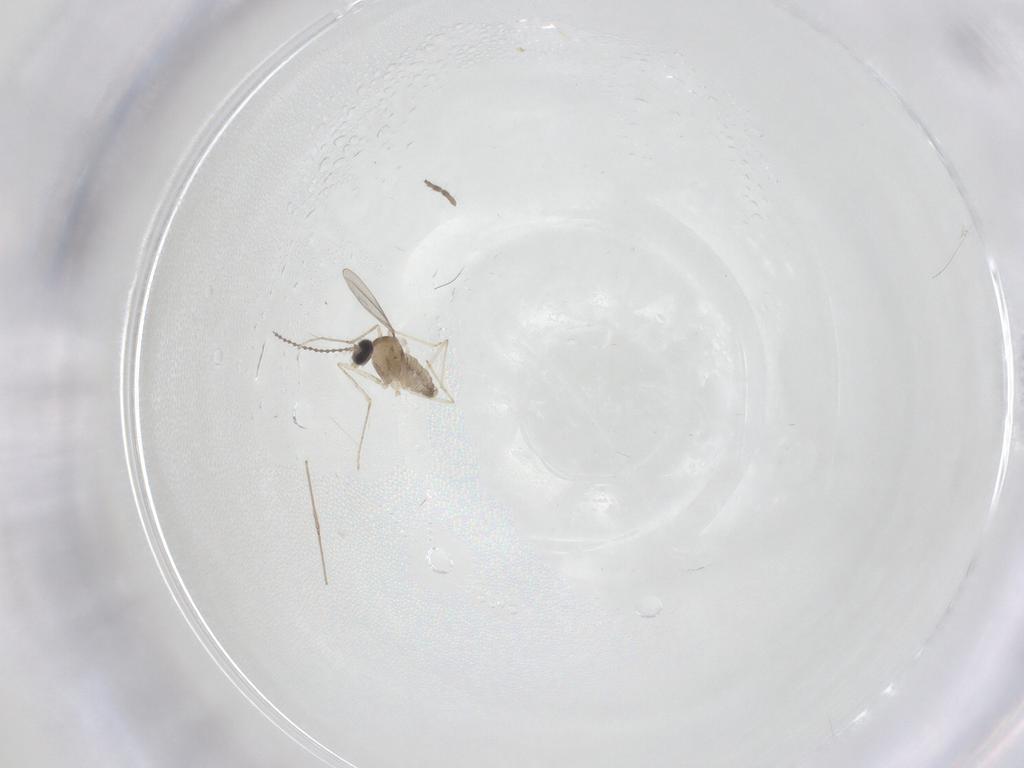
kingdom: Animalia
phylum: Arthropoda
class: Insecta
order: Diptera
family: Cecidomyiidae
